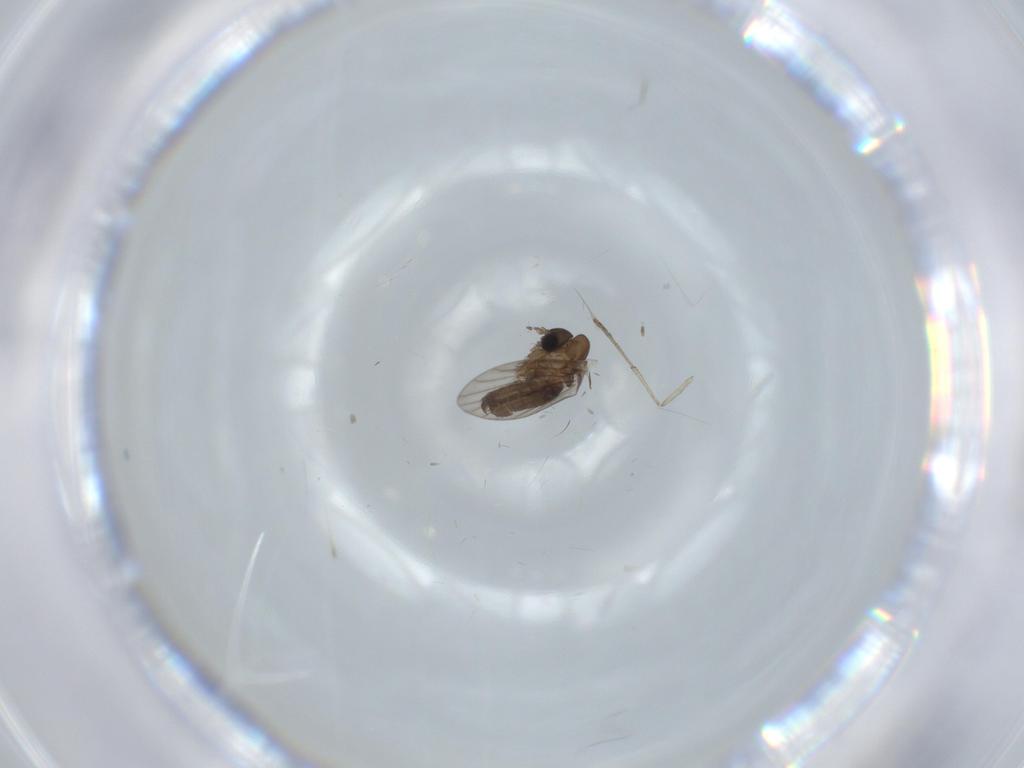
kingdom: Animalia
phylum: Arthropoda
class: Insecta
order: Diptera
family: Psychodidae
